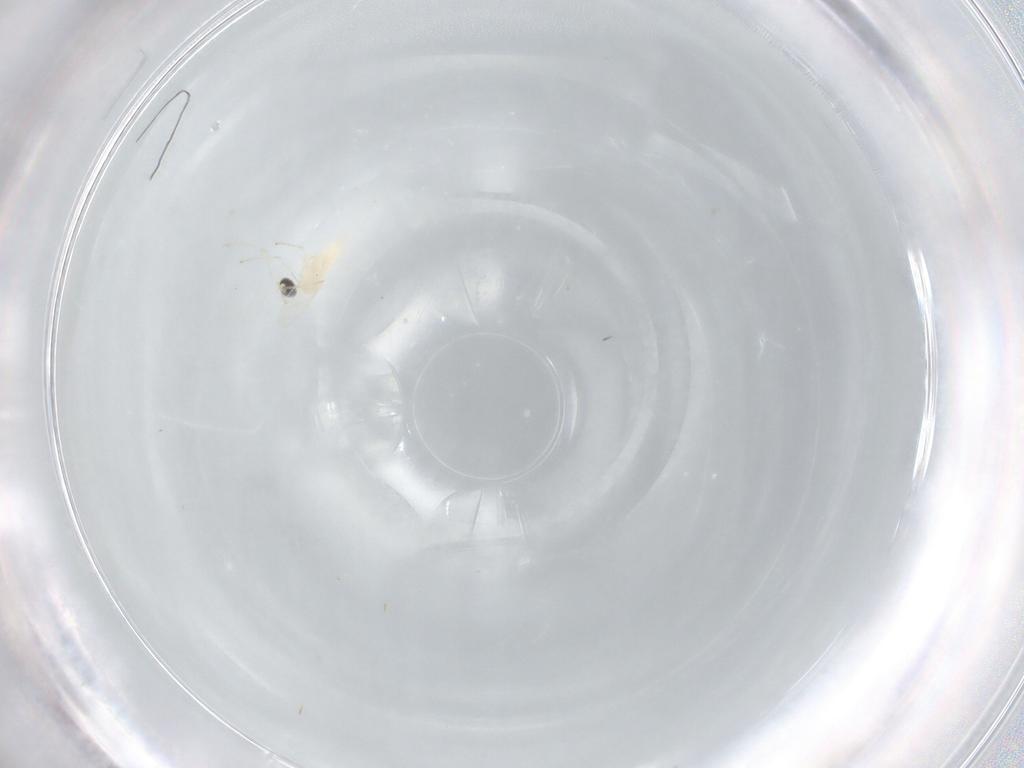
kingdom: Animalia
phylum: Arthropoda
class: Insecta
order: Diptera
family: Cecidomyiidae
